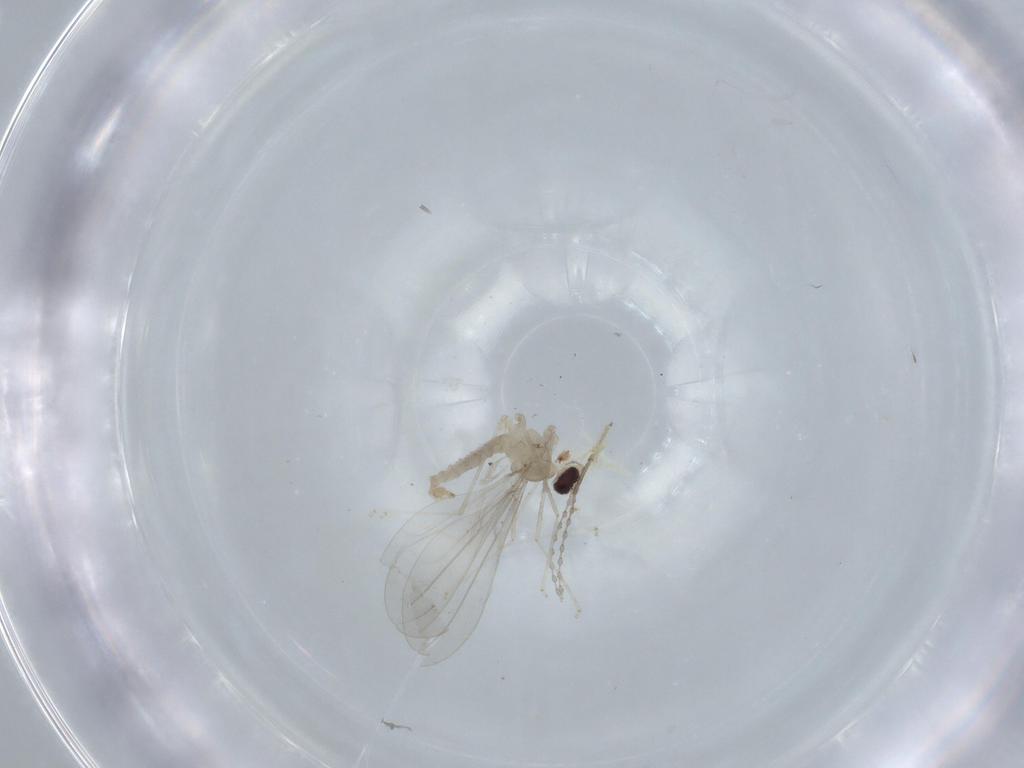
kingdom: Animalia
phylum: Arthropoda
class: Insecta
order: Diptera
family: Cecidomyiidae
